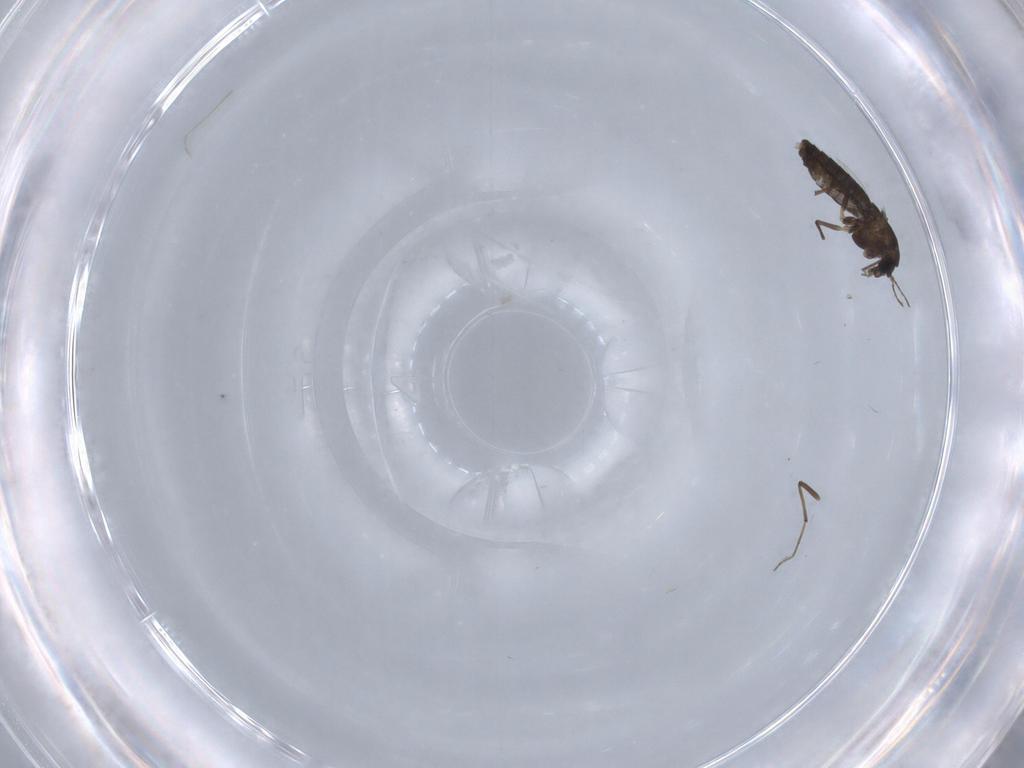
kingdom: Animalia
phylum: Arthropoda
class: Insecta
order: Diptera
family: Chironomidae
